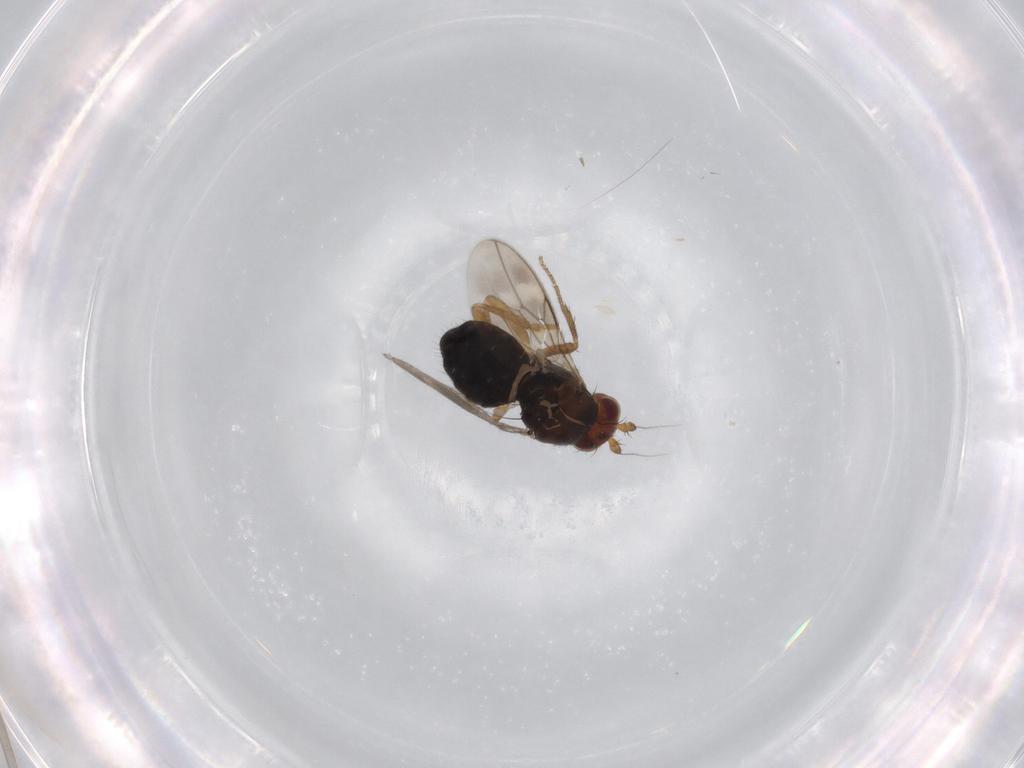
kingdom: Animalia
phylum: Arthropoda
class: Insecta
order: Diptera
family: Sphaeroceridae
